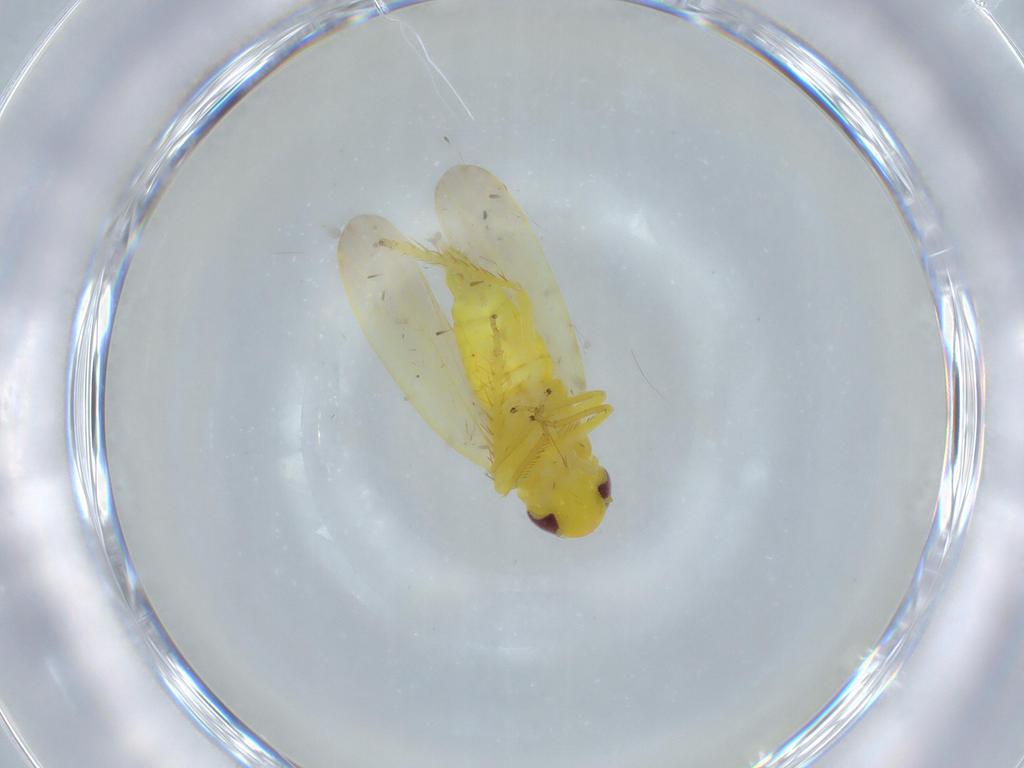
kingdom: Animalia
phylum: Arthropoda
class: Insecta
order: Hemiptera
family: Cicadellidae
